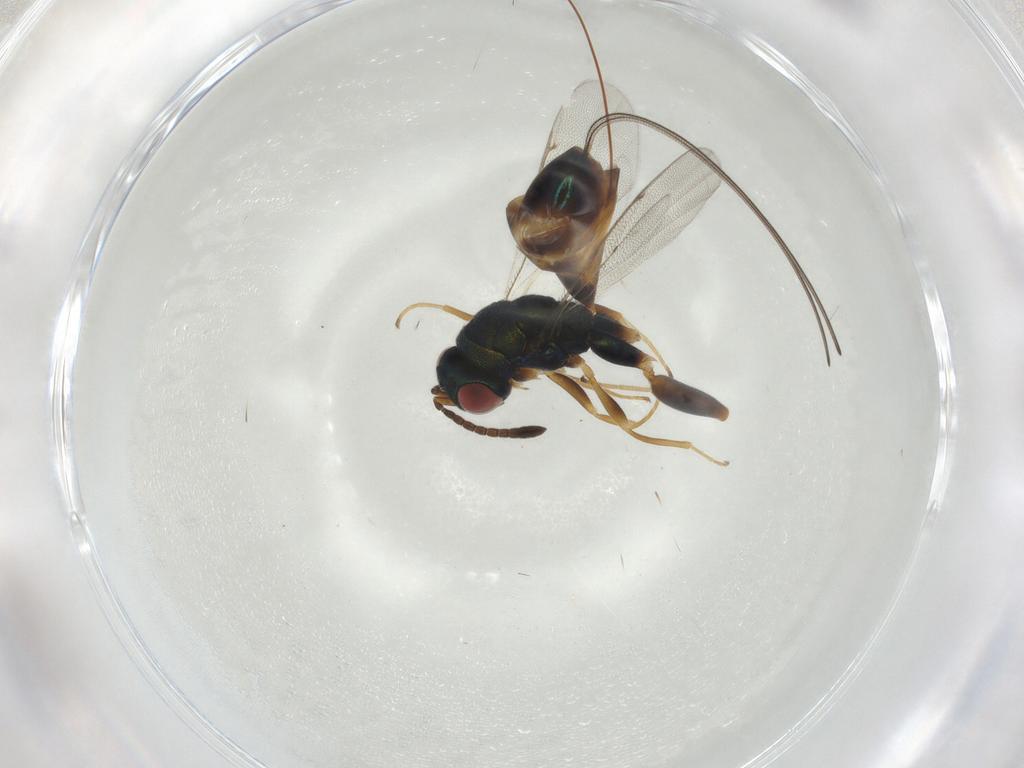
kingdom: Animalia
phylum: Arthropoda
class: Insecta
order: Hymenoptera
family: Torymidae
